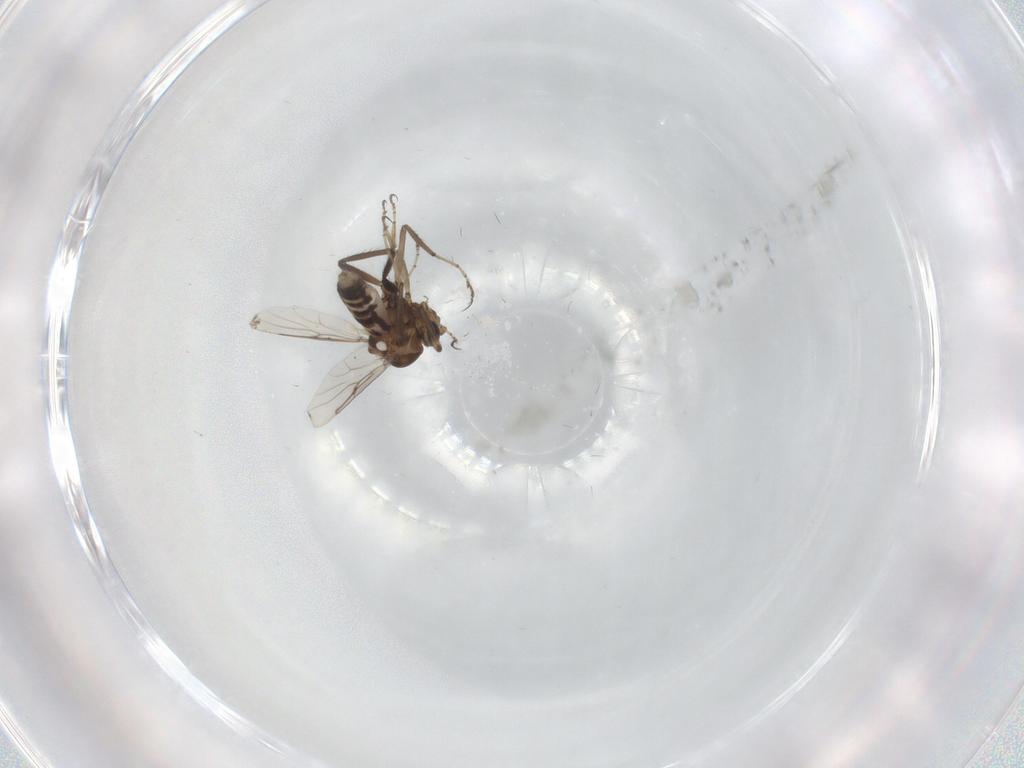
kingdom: Animalia
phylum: Arthropoda
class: Insecta
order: Diptera
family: Ceratopogonidae
